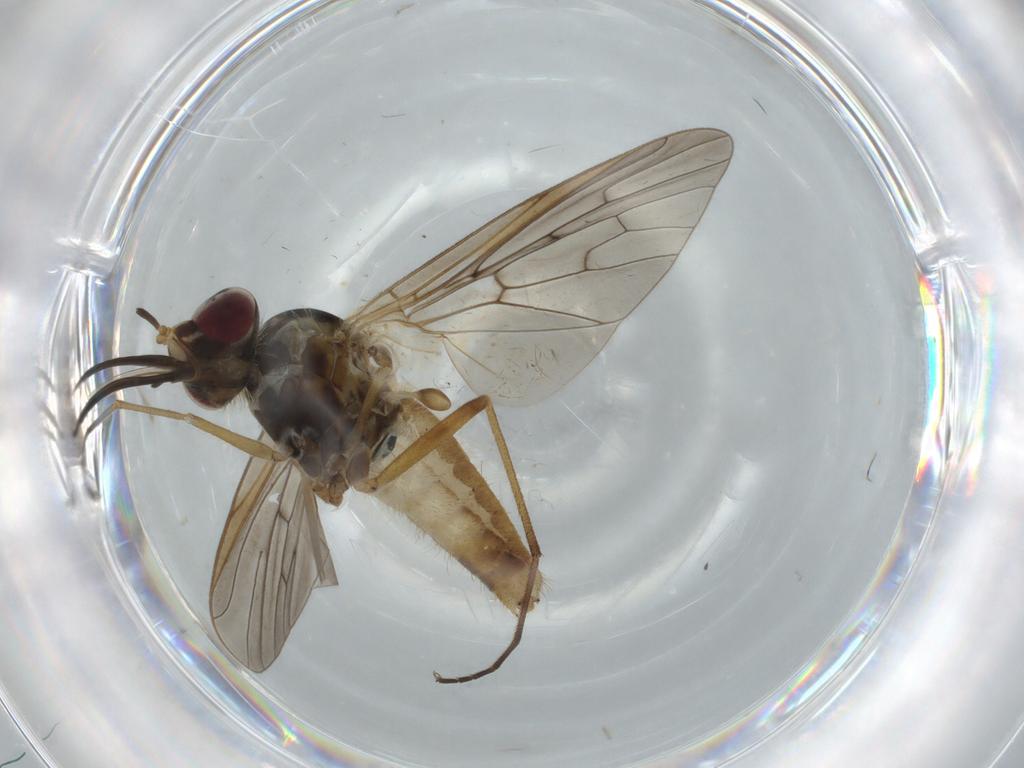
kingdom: Animalia
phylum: Arthropoda
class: Insecta
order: Diptera
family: Bombyliidae
